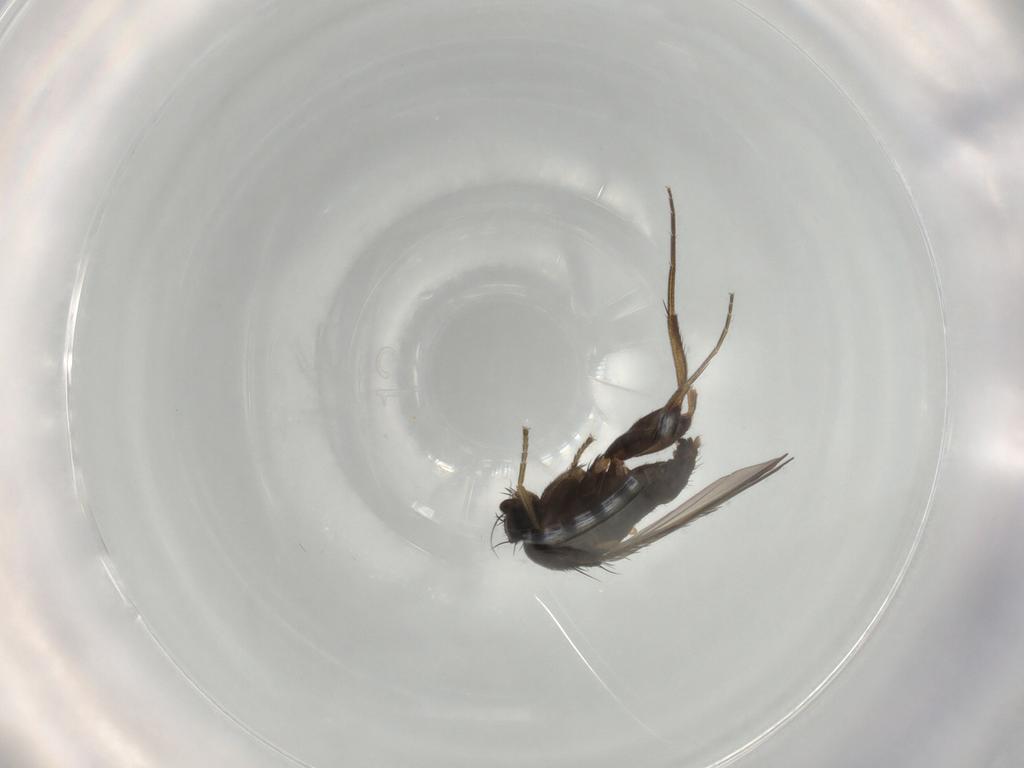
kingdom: Animalia
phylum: Arthropoda
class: Insecta
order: Diptera
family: Phoridae
